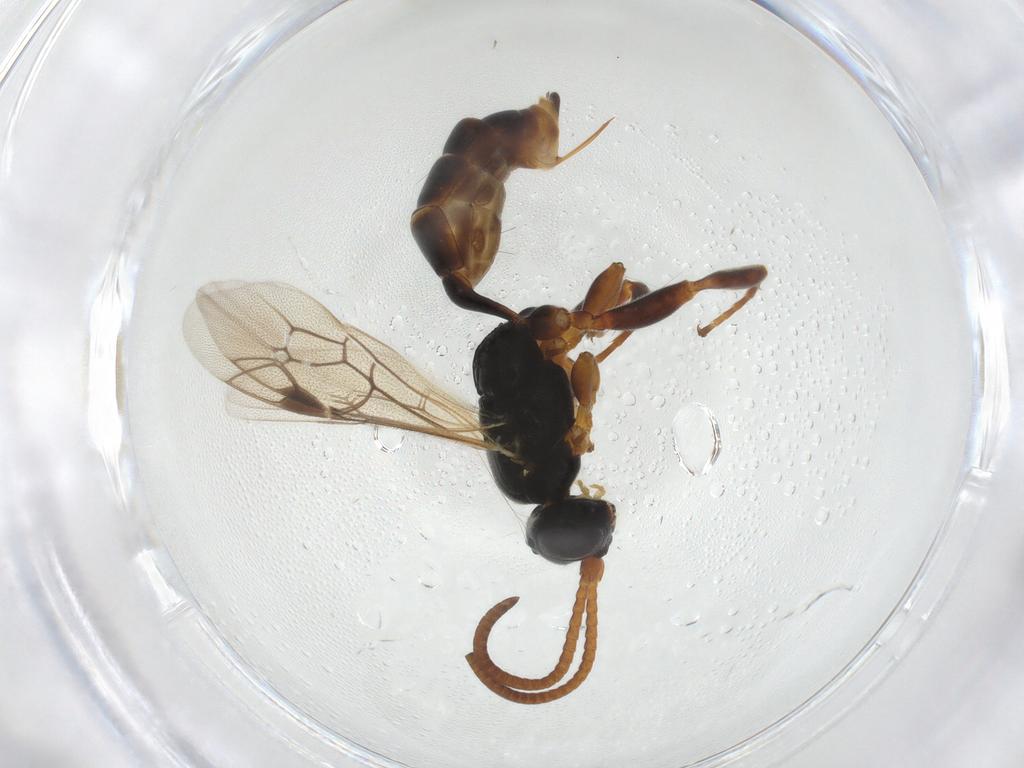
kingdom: Animalia
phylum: Arthropoda
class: Insecta
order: Hymenoptera
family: Ichneumonidae
